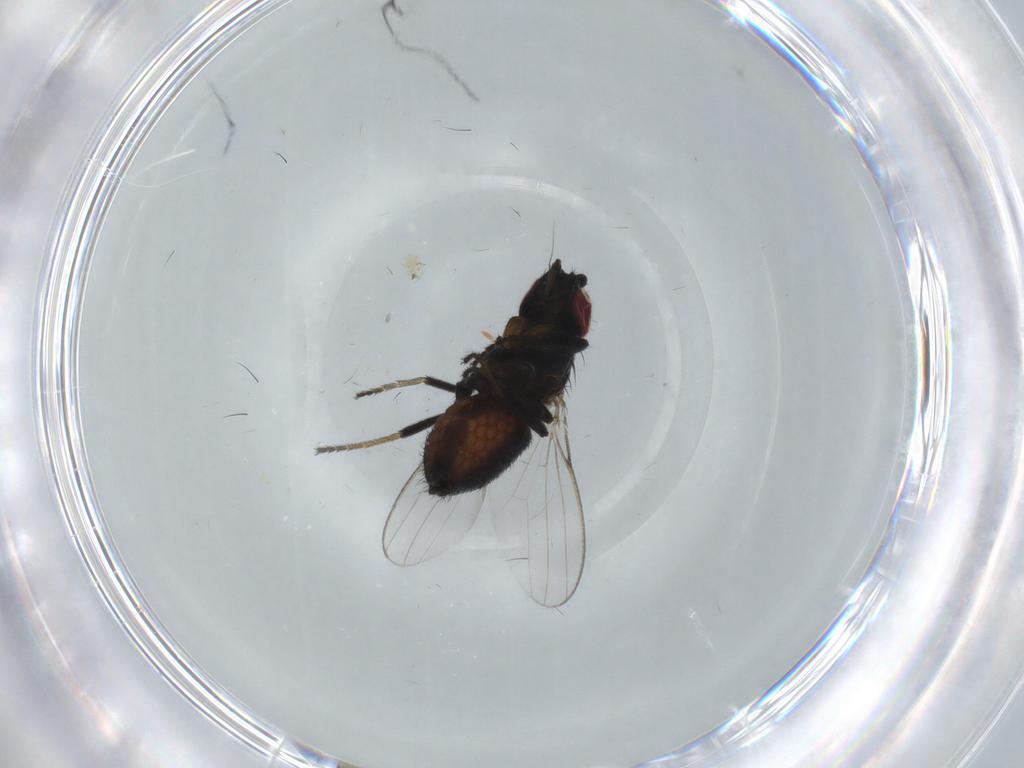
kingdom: Animalia
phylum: Arthropoda
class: Insecta
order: Diptera
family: Milichiidae
